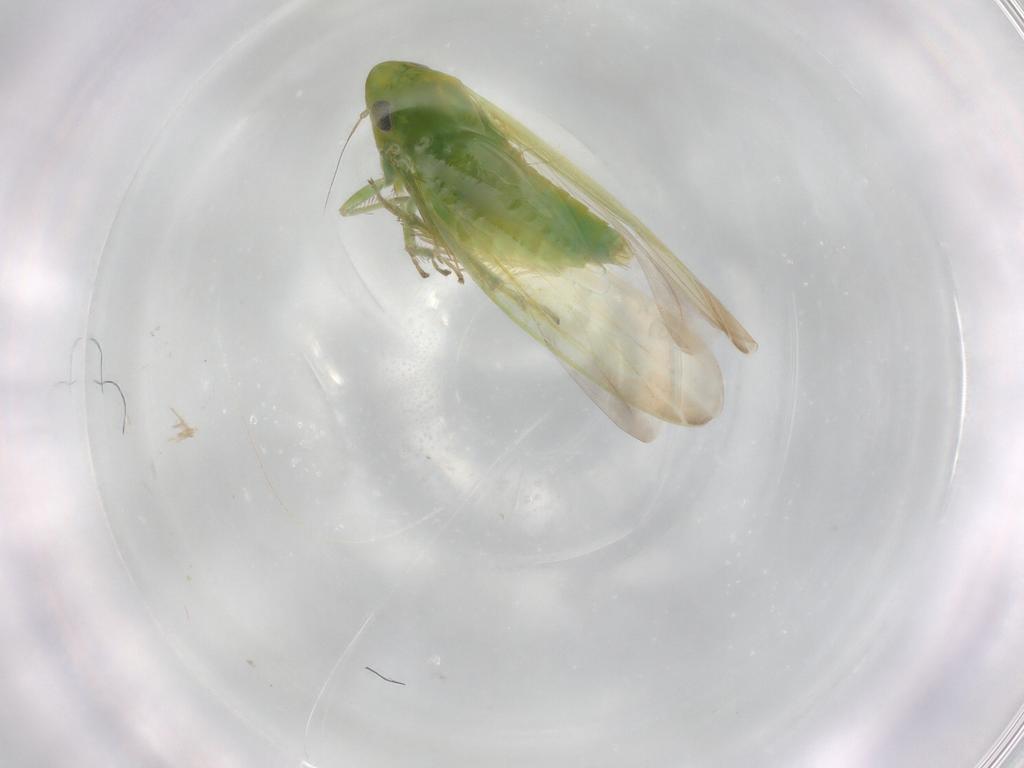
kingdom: Animalia
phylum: Arthropoda
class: Insecta
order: Hemiptera
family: Cicadellidae
